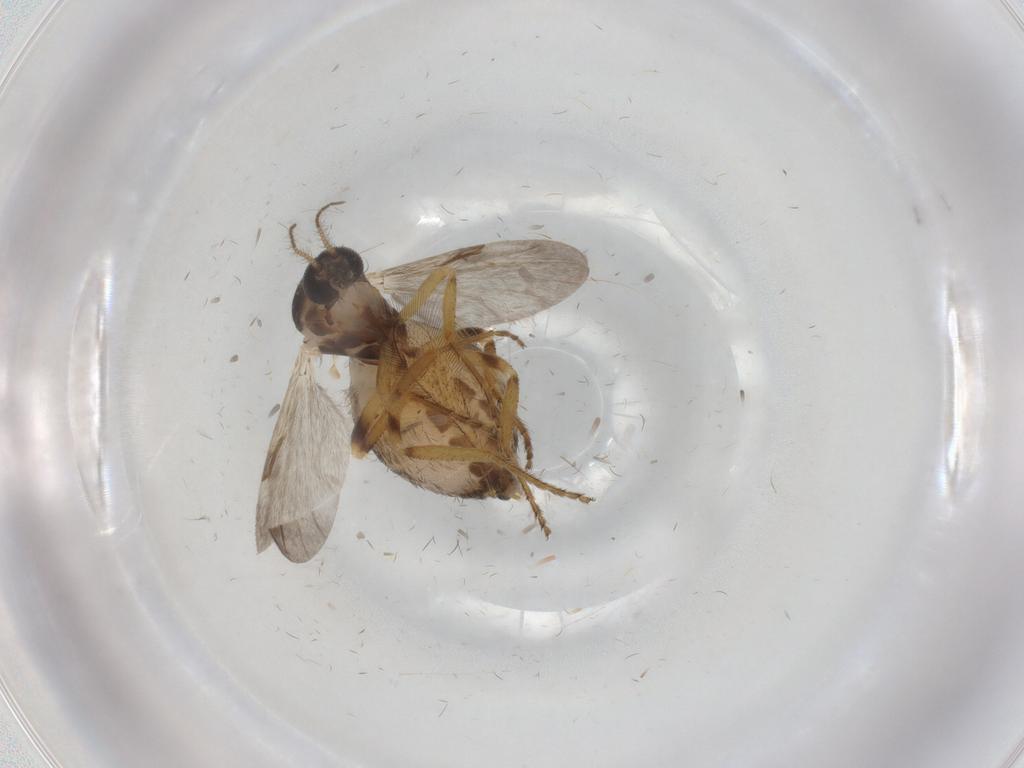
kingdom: Animalia
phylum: Arthropoda
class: Insecta
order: Diptera
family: Ceratopogonidae
